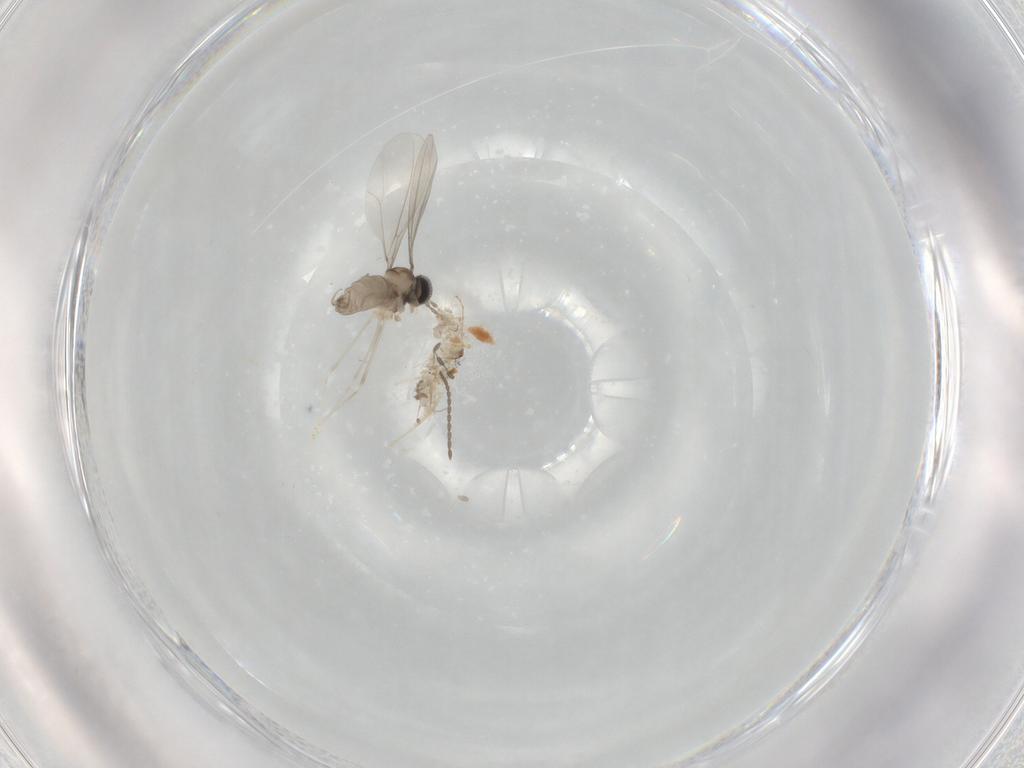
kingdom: Animalia
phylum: Arthropoda
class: Insecta
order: Diptera
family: Cecidomyiidae
